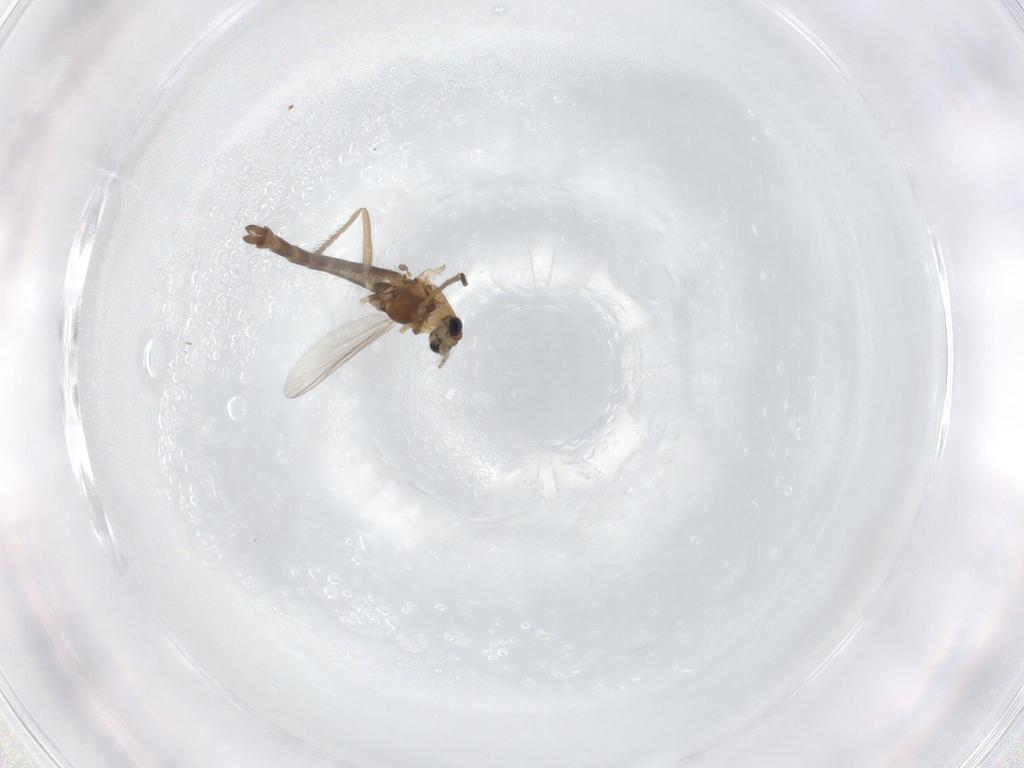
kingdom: Animalia
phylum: Arthropoda
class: Insecta
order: Diptera
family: Chironomidae
